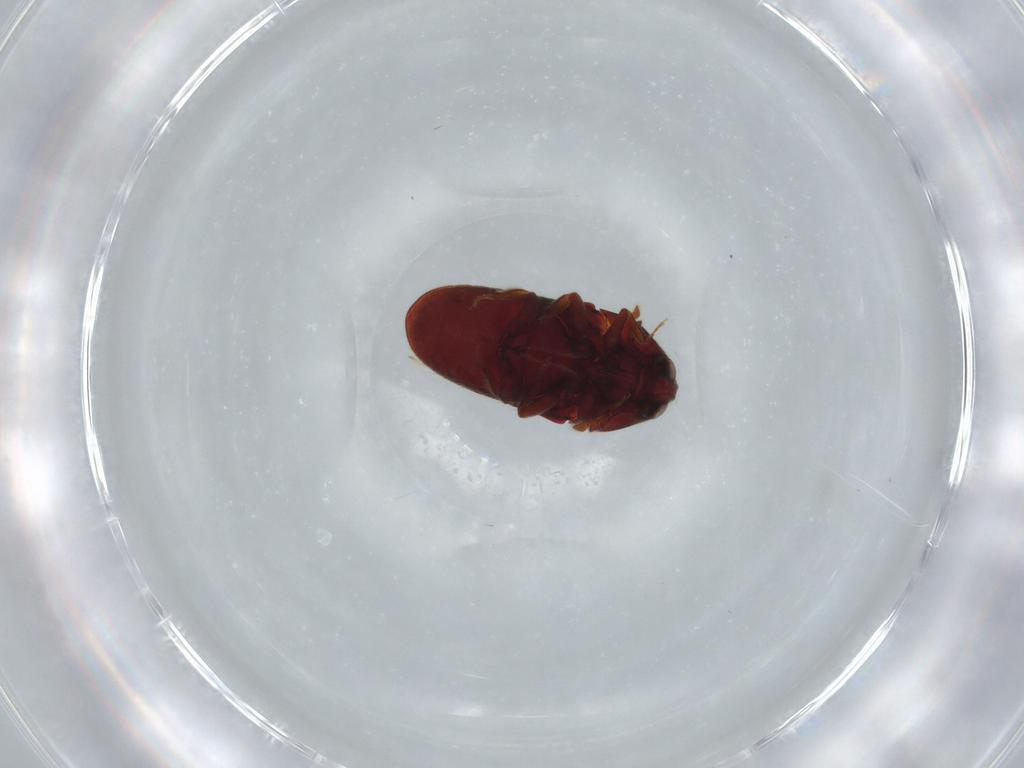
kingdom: Animalia
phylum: Arthropoda
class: Insecta
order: Coleoptera
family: Throscidae
